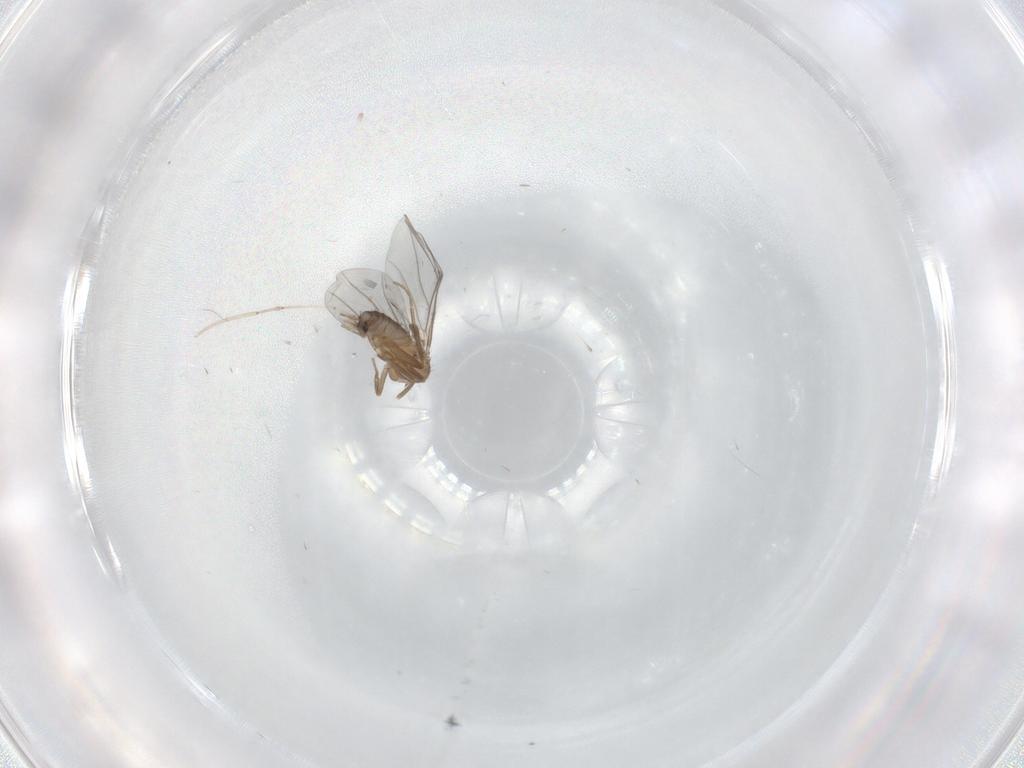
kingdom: Animalia
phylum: Arthropoda
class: Insecta
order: Diptera
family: Cecidomyiidae
